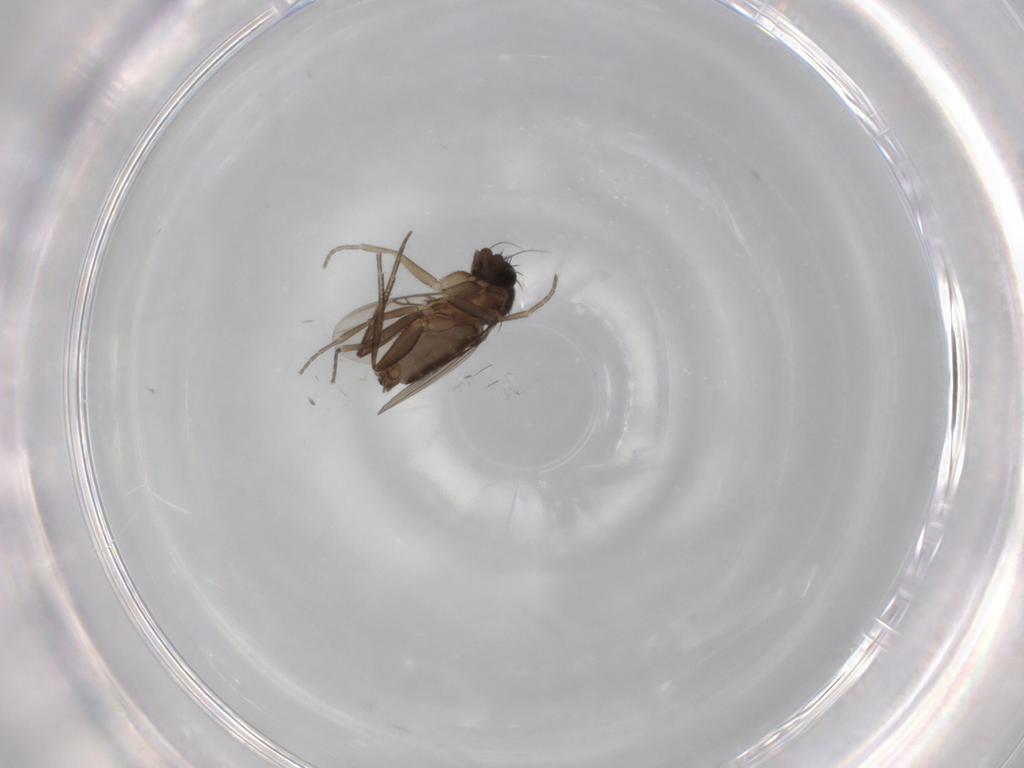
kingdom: Animalia
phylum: Arthropoda
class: Insecta
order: Diptera
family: Phoridae
